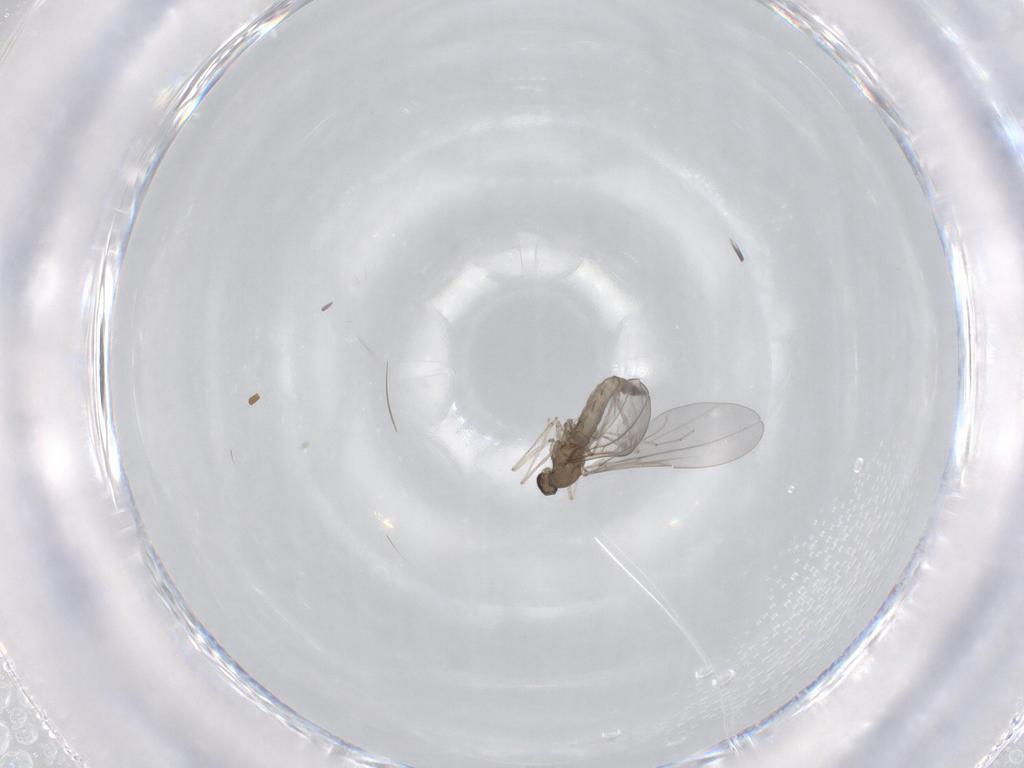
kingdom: Animalia
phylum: Arthropoda
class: Insecta
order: Diptera
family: Cecidomyiidae
